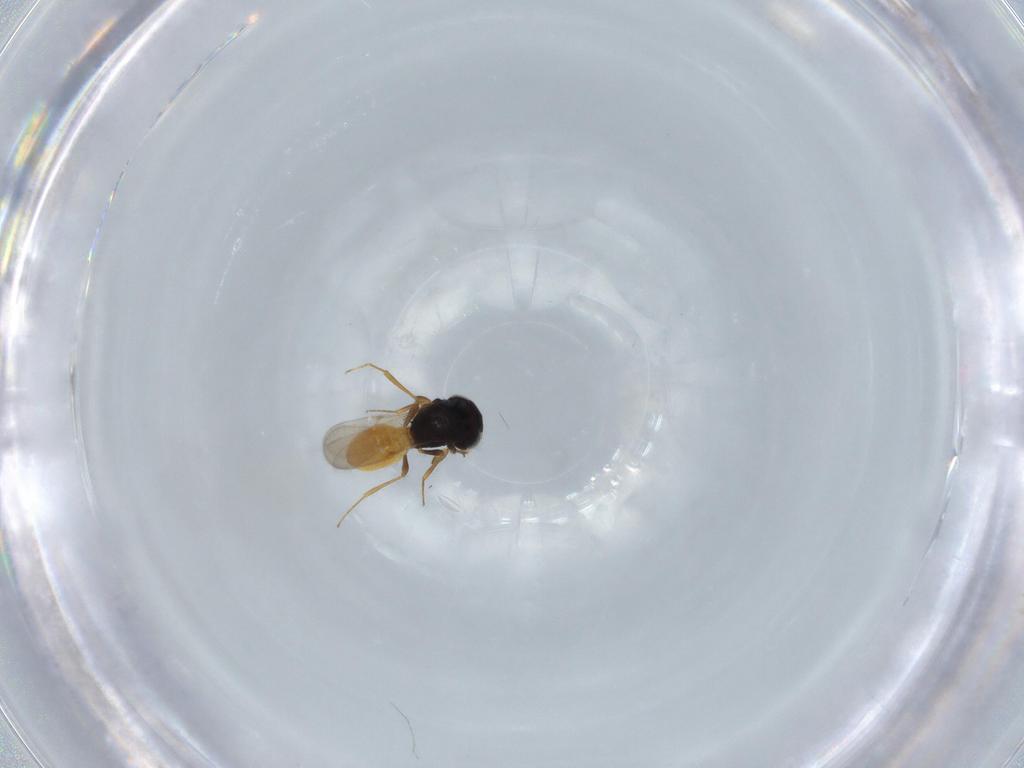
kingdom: Animalia
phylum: Arthropoda
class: Insecta
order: Hymenoptera
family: Scelionidae
